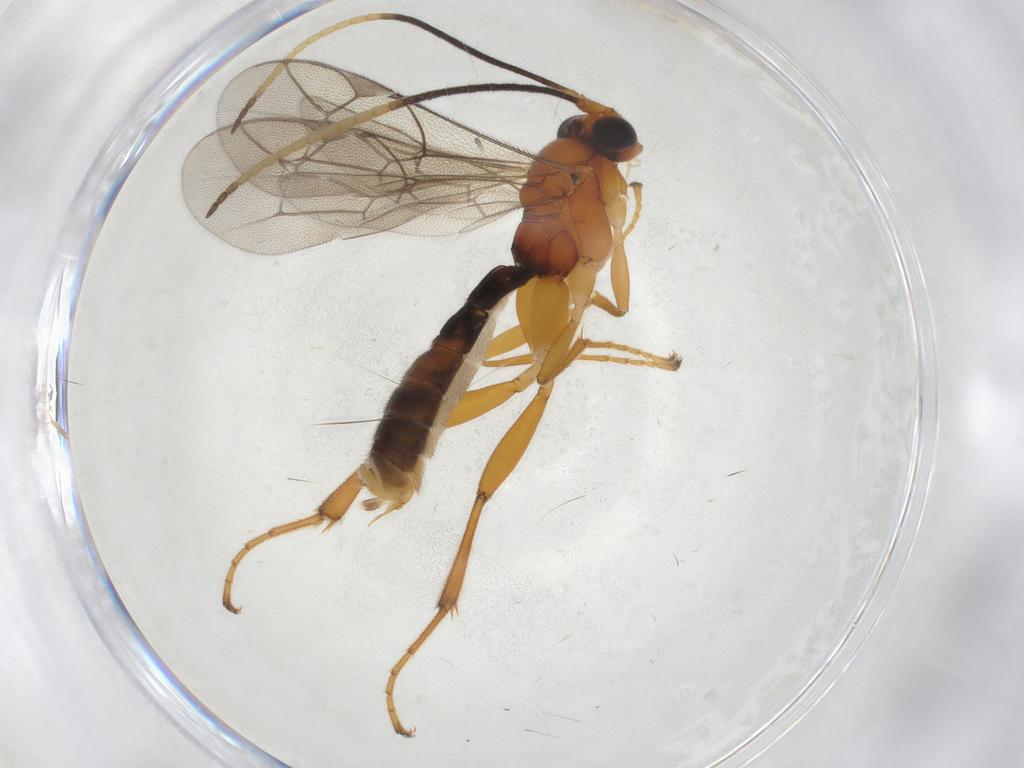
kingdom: Animalia
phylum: Arthropoda
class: Insecta
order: Hymenoptera
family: Ichneumonidae
